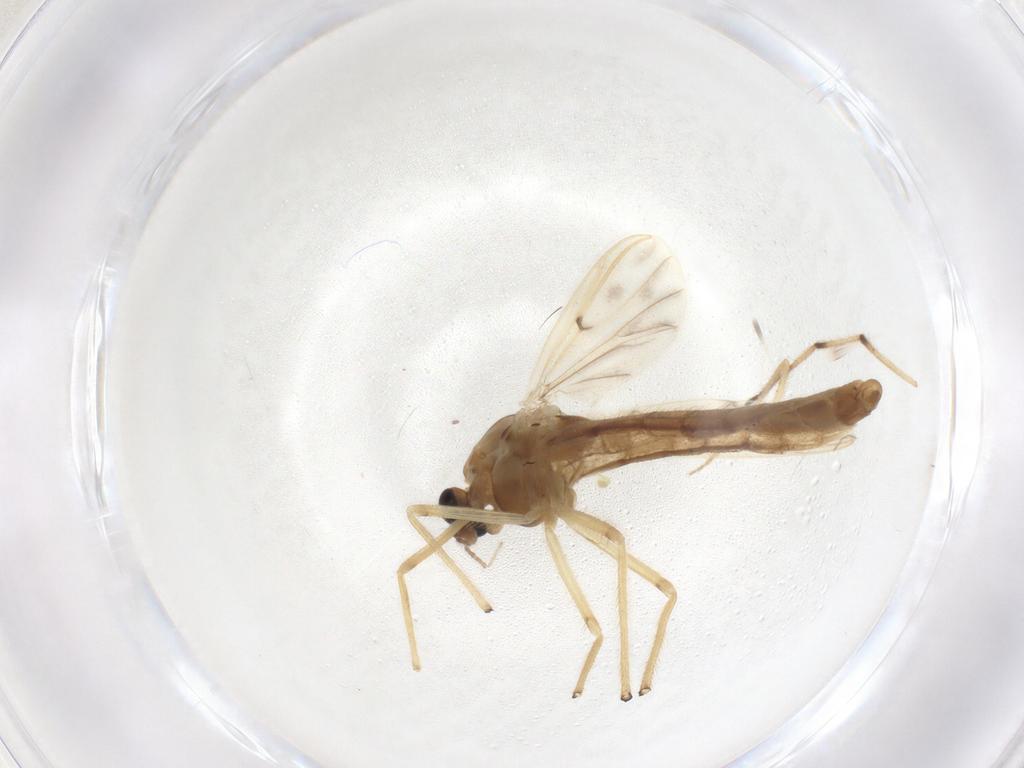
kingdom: Animalia
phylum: Arthropoda
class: Insecta
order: Diptera
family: Chironomidae
